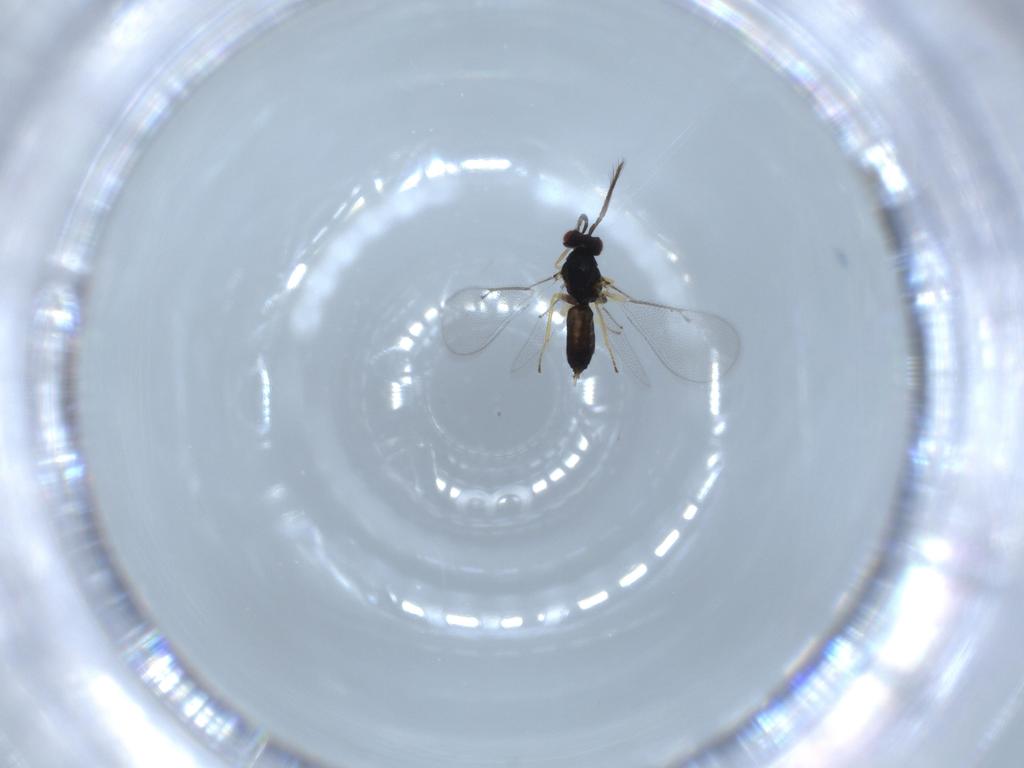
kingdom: Animalia
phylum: Arthropoda
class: Insecta
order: Hymenoptera
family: Eulophidae
